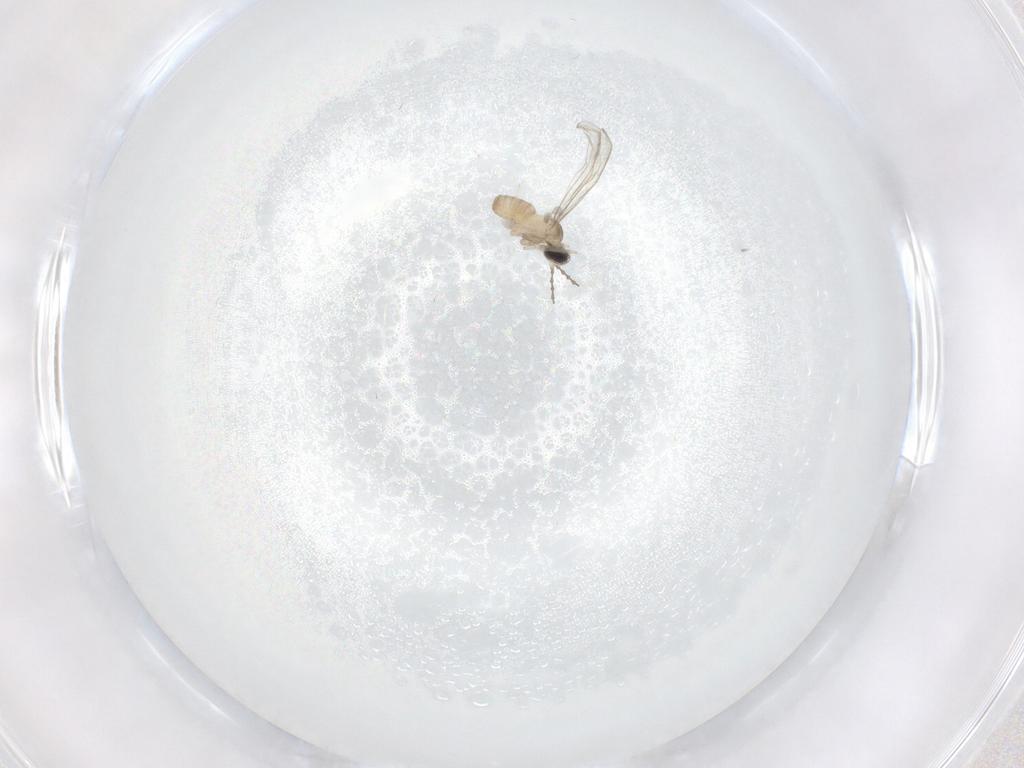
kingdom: Animalia
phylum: Arthropoda
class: Insecta
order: Diptera
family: Cecidomyiidae
